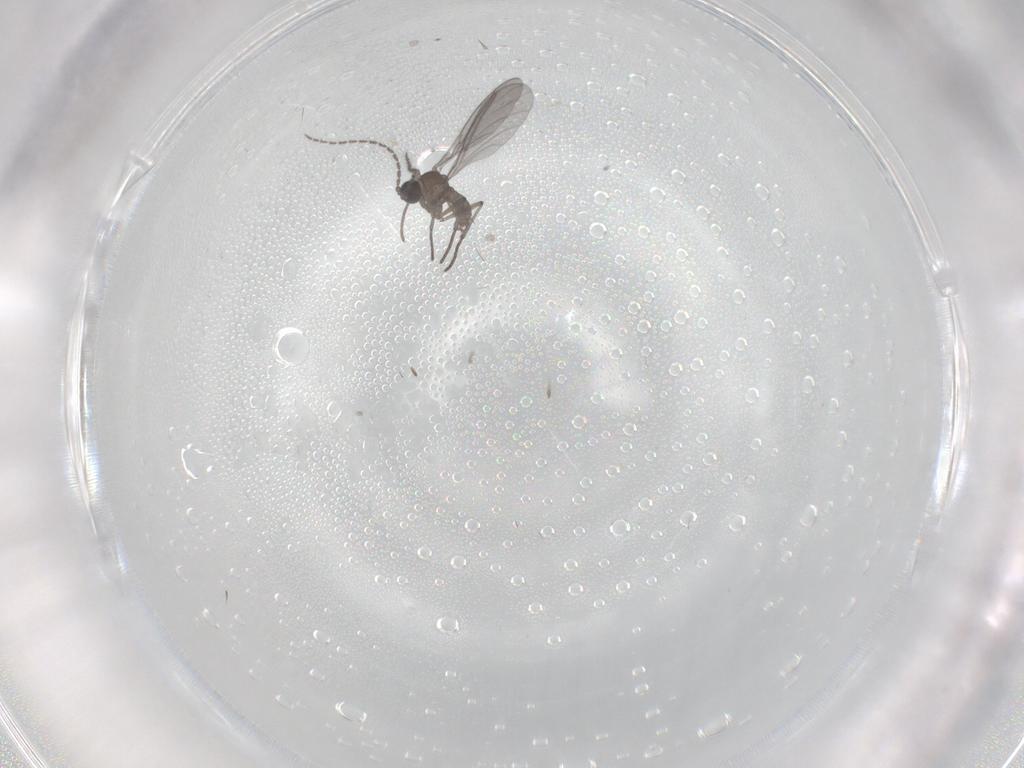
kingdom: Animalia
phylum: Arthropoda
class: Insecta
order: Diptera
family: Sciaridae
